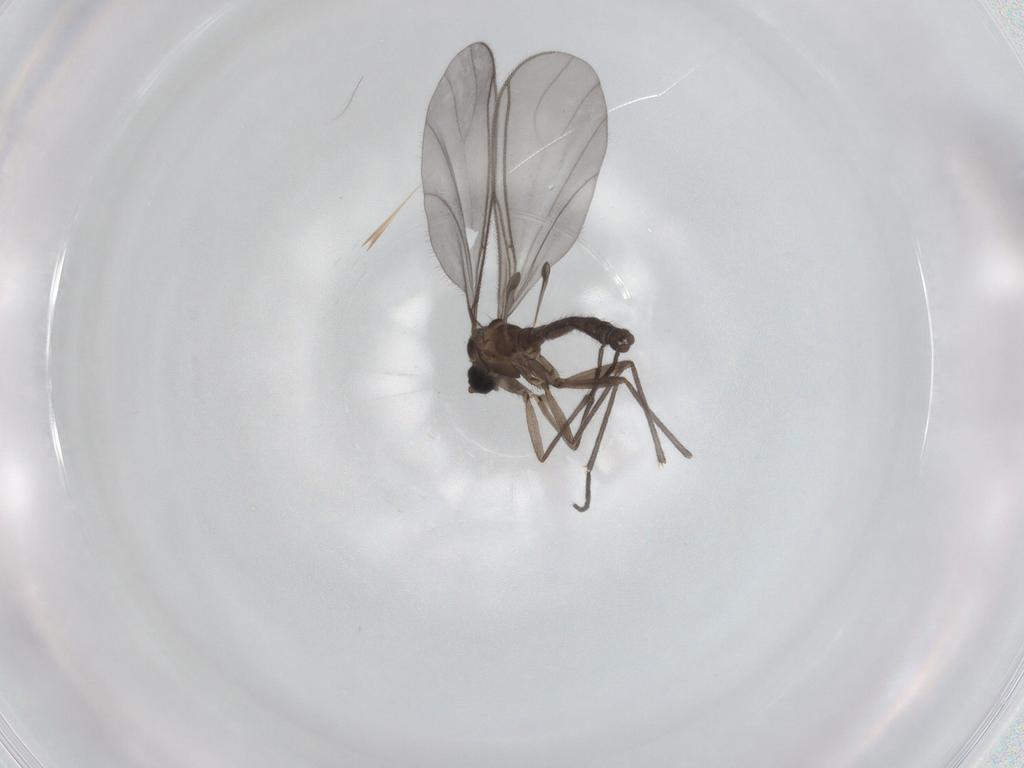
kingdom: Animalia
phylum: Arthropoda
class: Insecta
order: Diptera
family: Sciaridae
